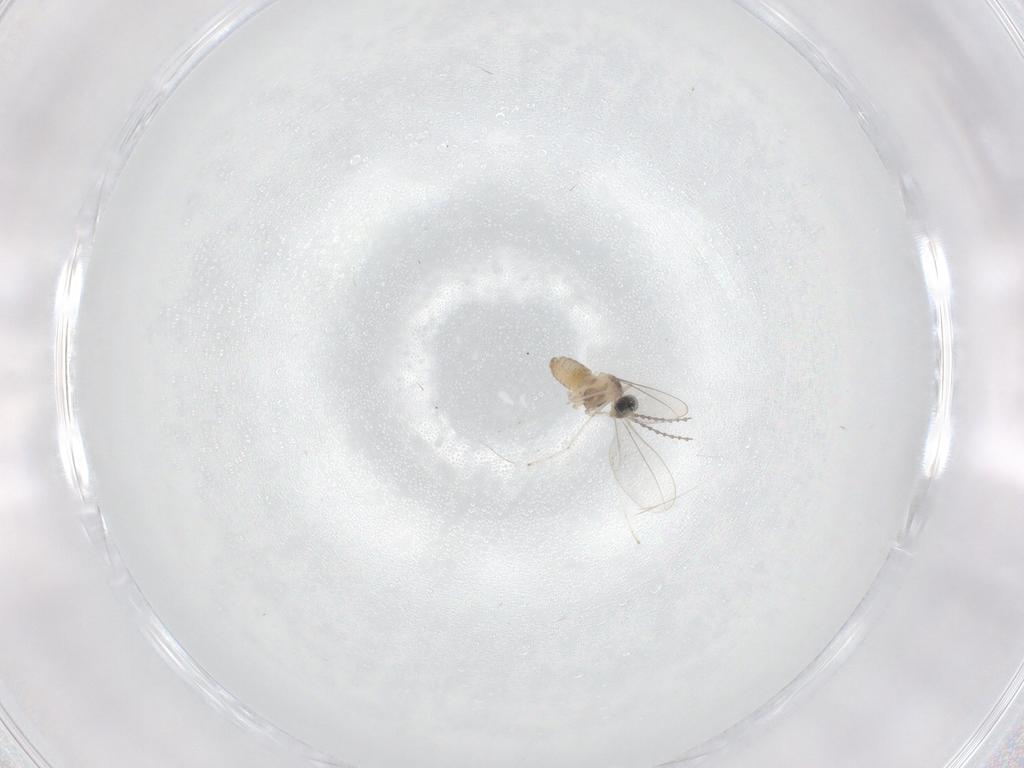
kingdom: Animalia
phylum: Arthropoda
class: Insecta
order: Diptera
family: Cecidomyiidae
